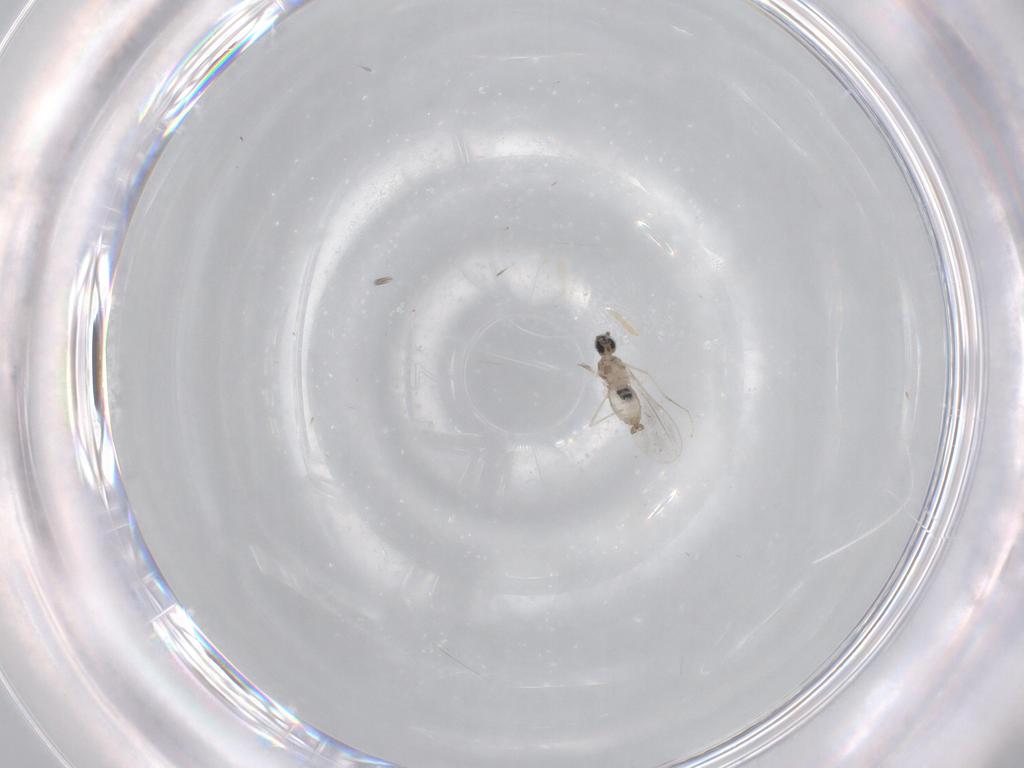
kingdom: Animalia
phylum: Arthropoda
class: Insecta
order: Diptera
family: Cecidomyiidae
